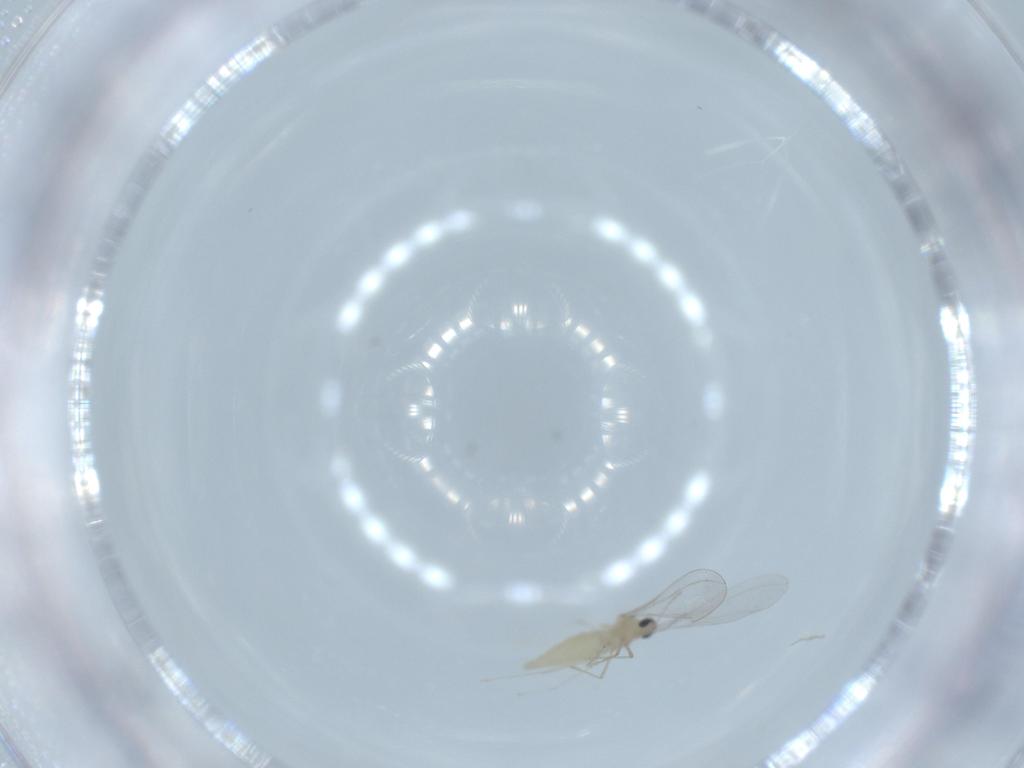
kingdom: Animalia
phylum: Arthropoda
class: Insecta
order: Diptera
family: Cecidomyiidae
